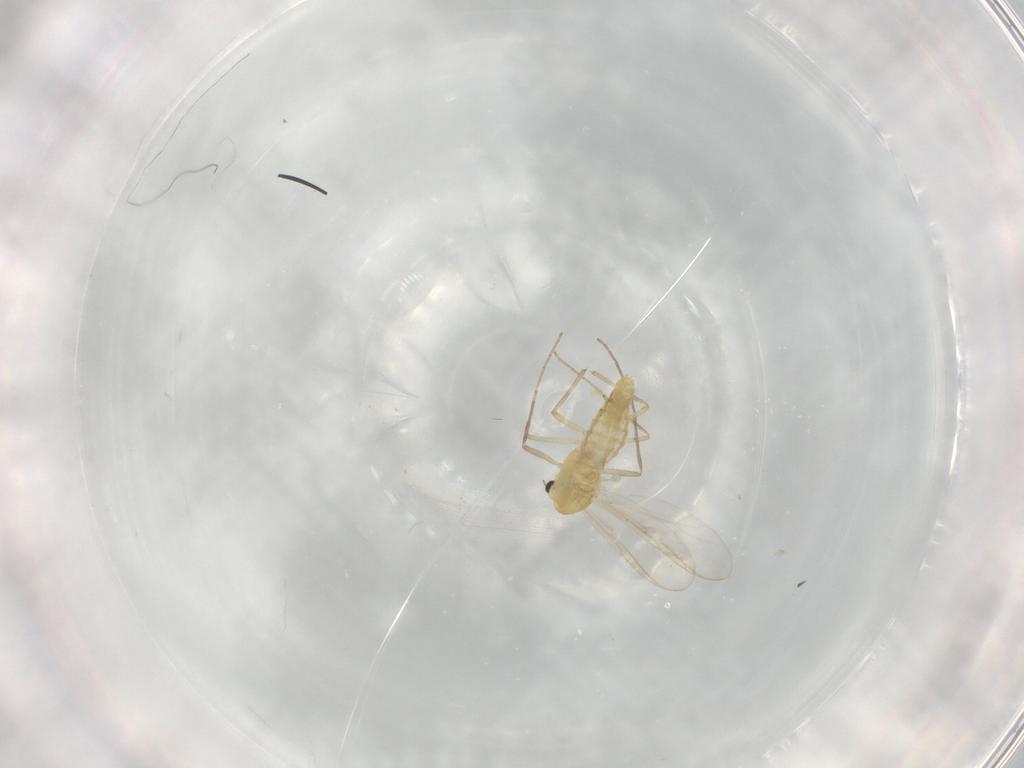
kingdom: Animalia
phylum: Arthropoda
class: Insecta
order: Diptera
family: Chironomidae
